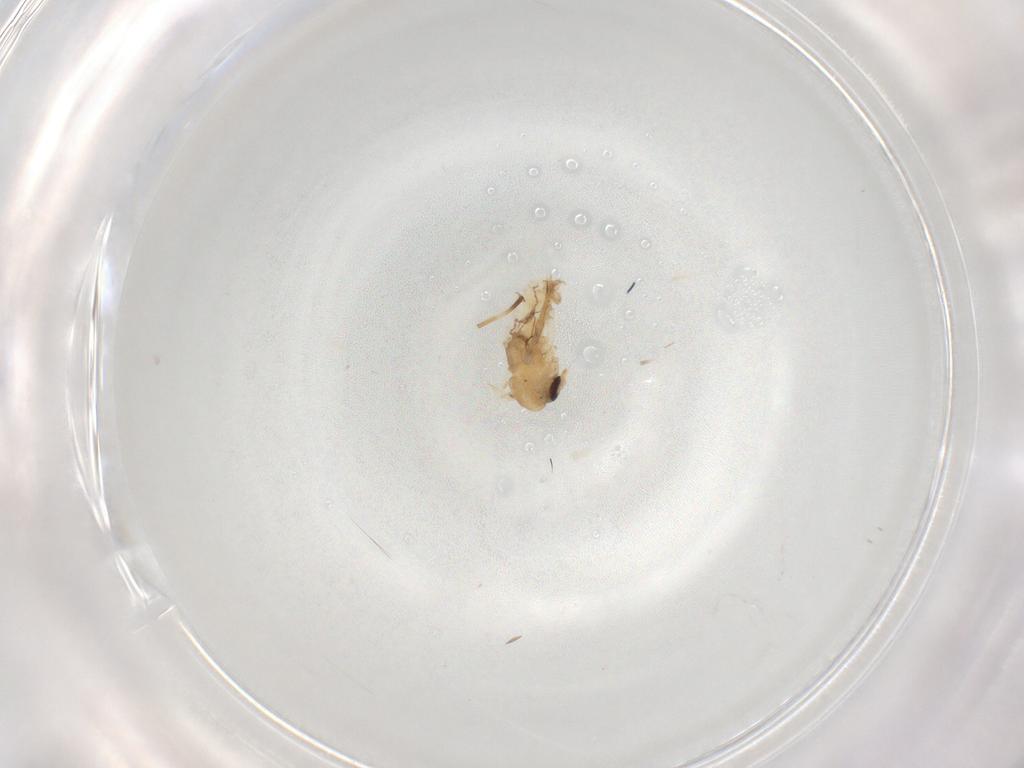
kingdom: Animalia
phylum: Arthropoda
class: Insecta
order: Diptera
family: Psychodidae
